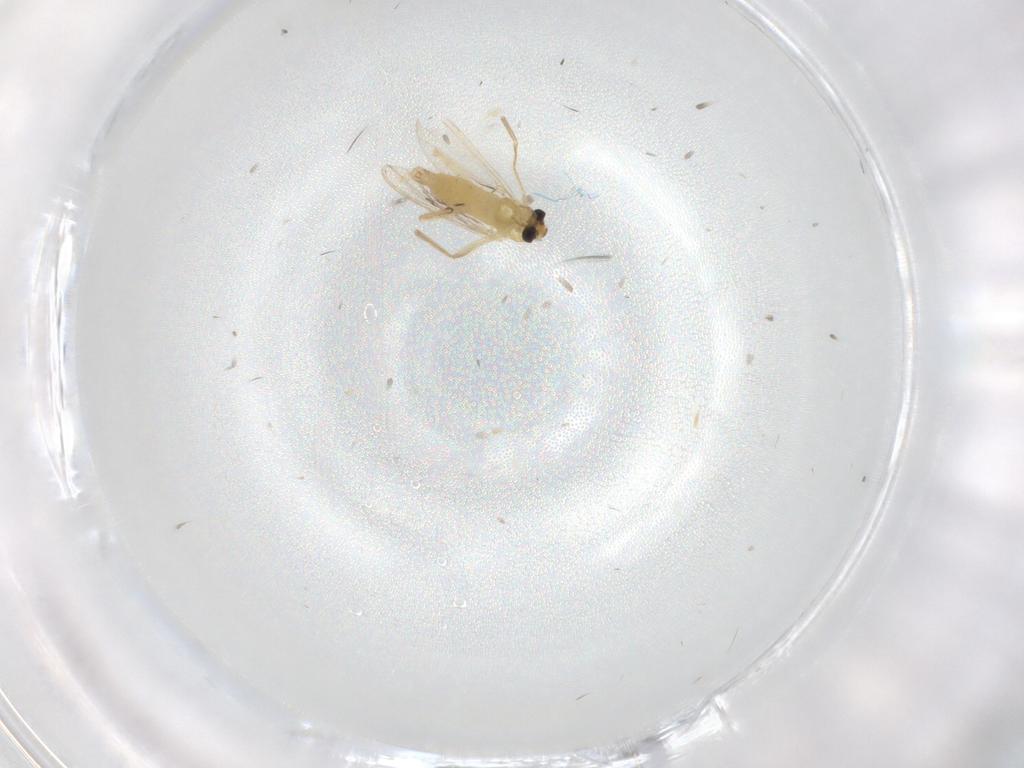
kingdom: Animalia
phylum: Arthropoda
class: Insecta
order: Diptera
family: Chironomidae
